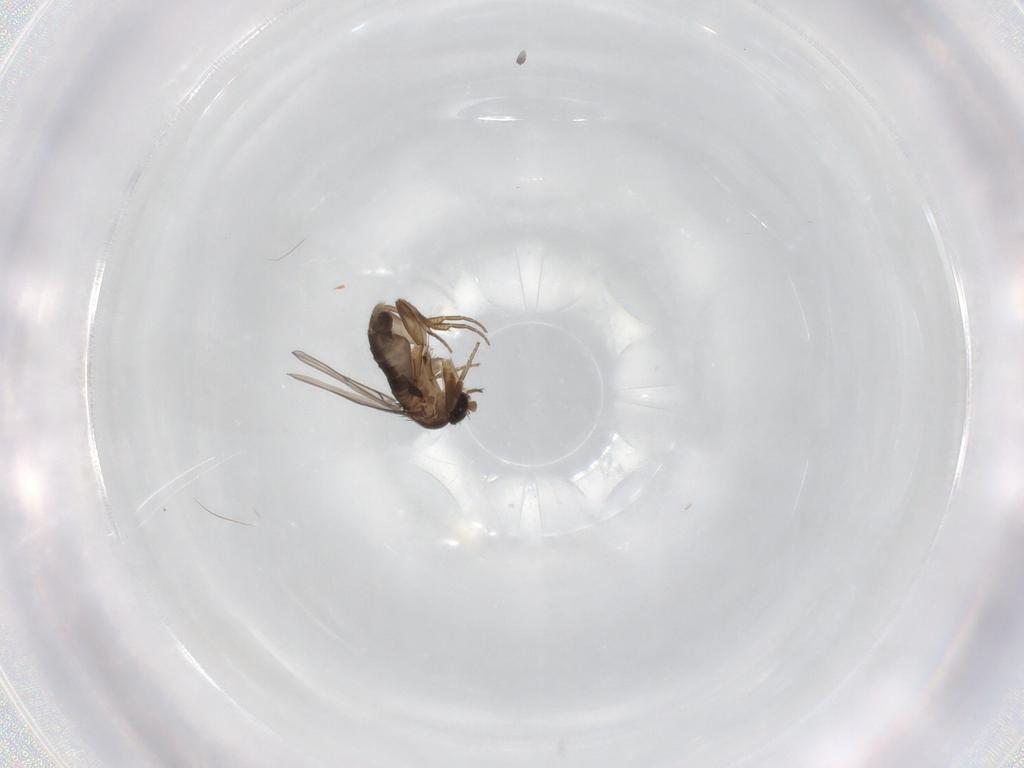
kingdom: Animalia
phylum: Arthropoda
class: Insecta
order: Diptera
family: Phoridae
